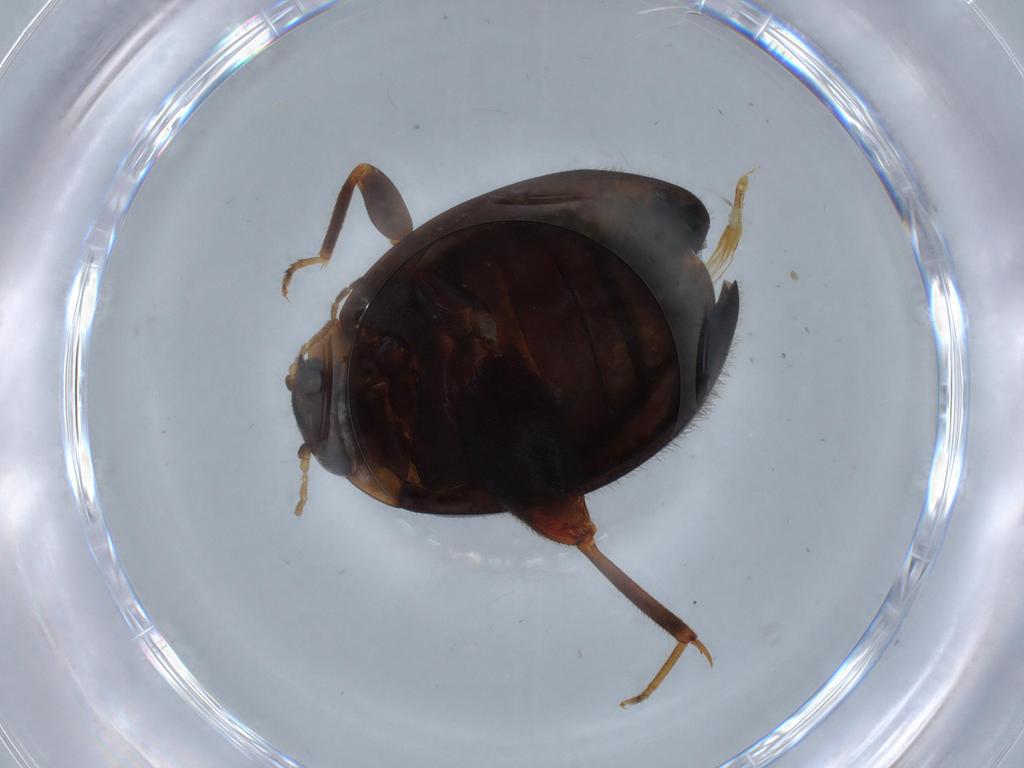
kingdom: Animalia
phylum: Arthropoda
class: Insecta
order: Coleoptera
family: Scirtidae
